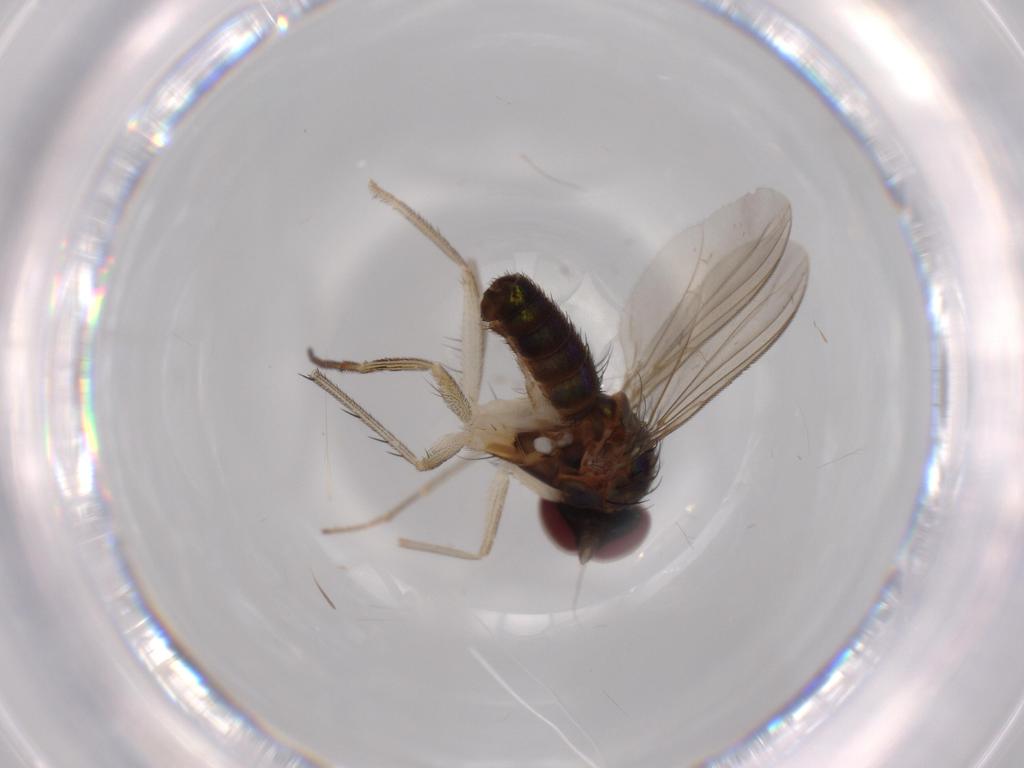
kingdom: Animalia
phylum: Arthropoda
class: Insecta
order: Diptera
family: Dolichopodidae
